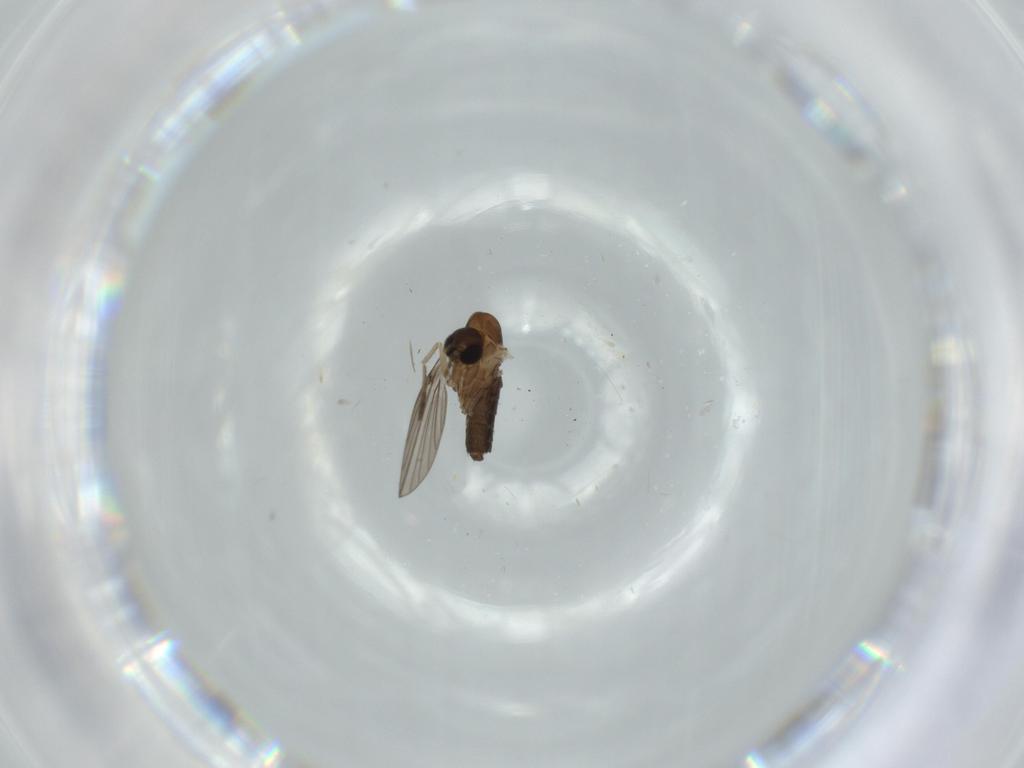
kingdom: Animalia
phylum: Arthropoda
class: Insecta
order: Diptera
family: Psychodidae
